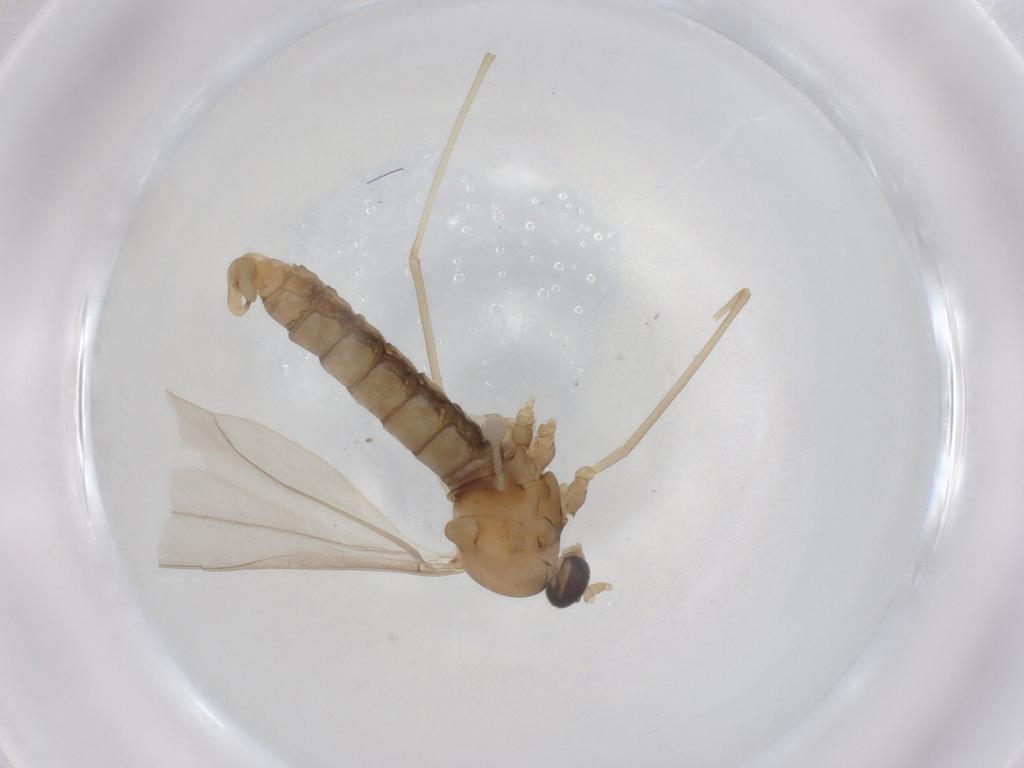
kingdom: Animalia
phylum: Arthropoda
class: Insecta
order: Diptera
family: Cecidomyiidae
